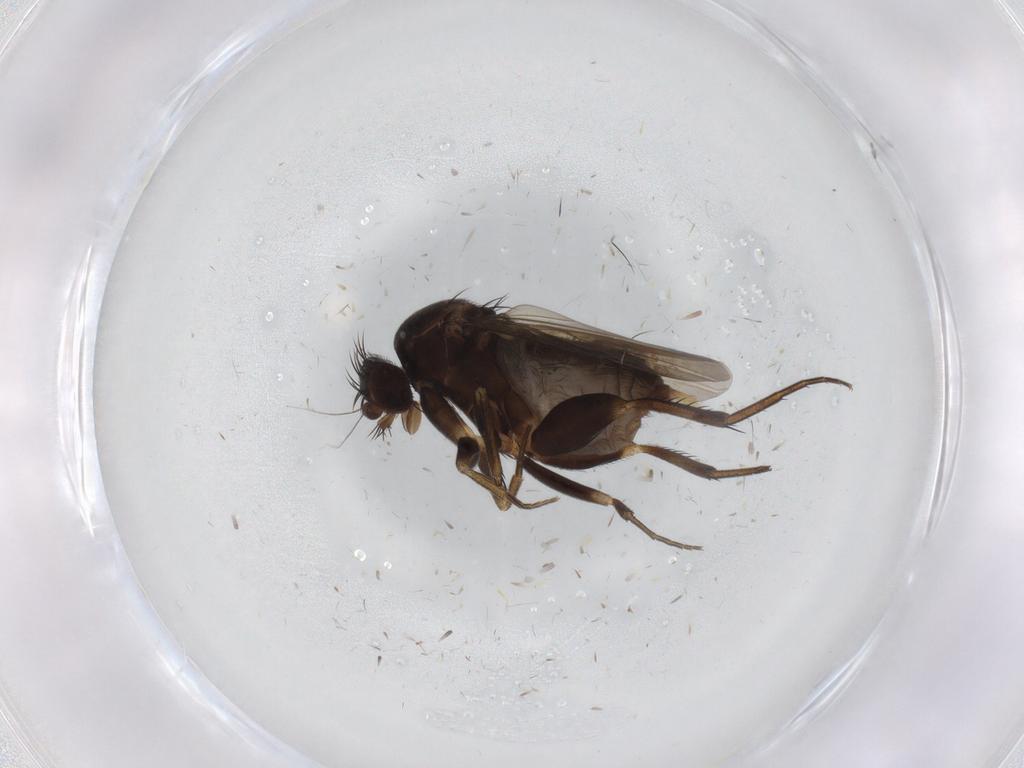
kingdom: Animalia
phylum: Arthropoda
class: Insecta
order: Diptera
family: Phoridae
